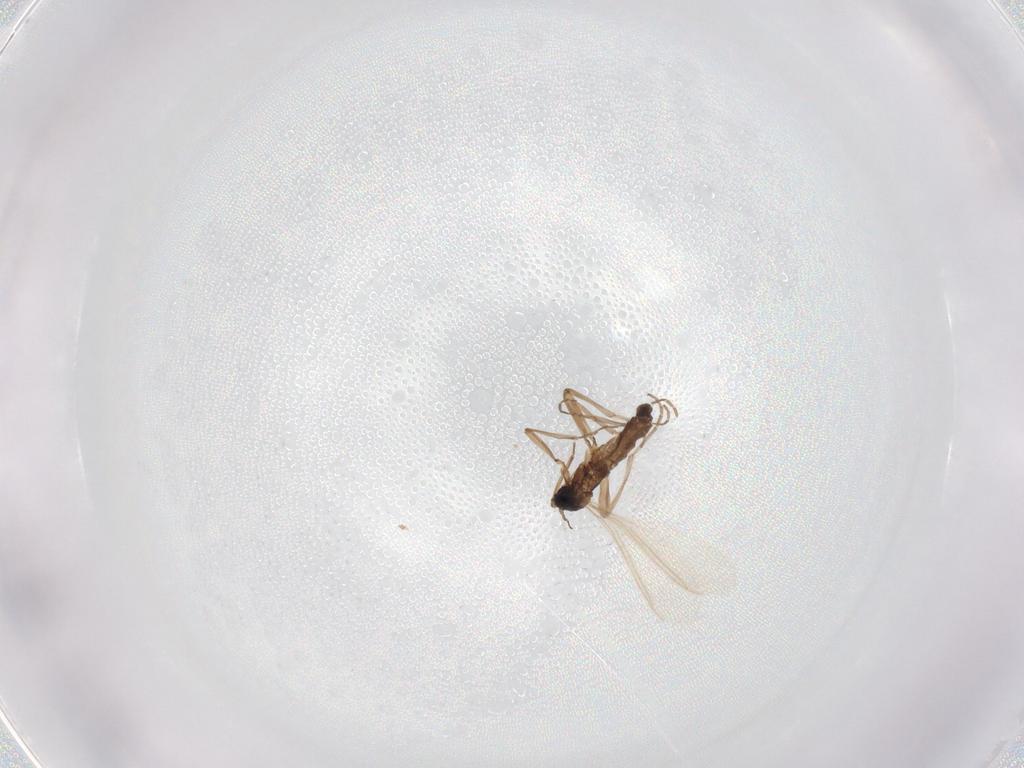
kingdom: Animalia
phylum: Arthropoda
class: Insecta
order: Diptera
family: Sciaridae
